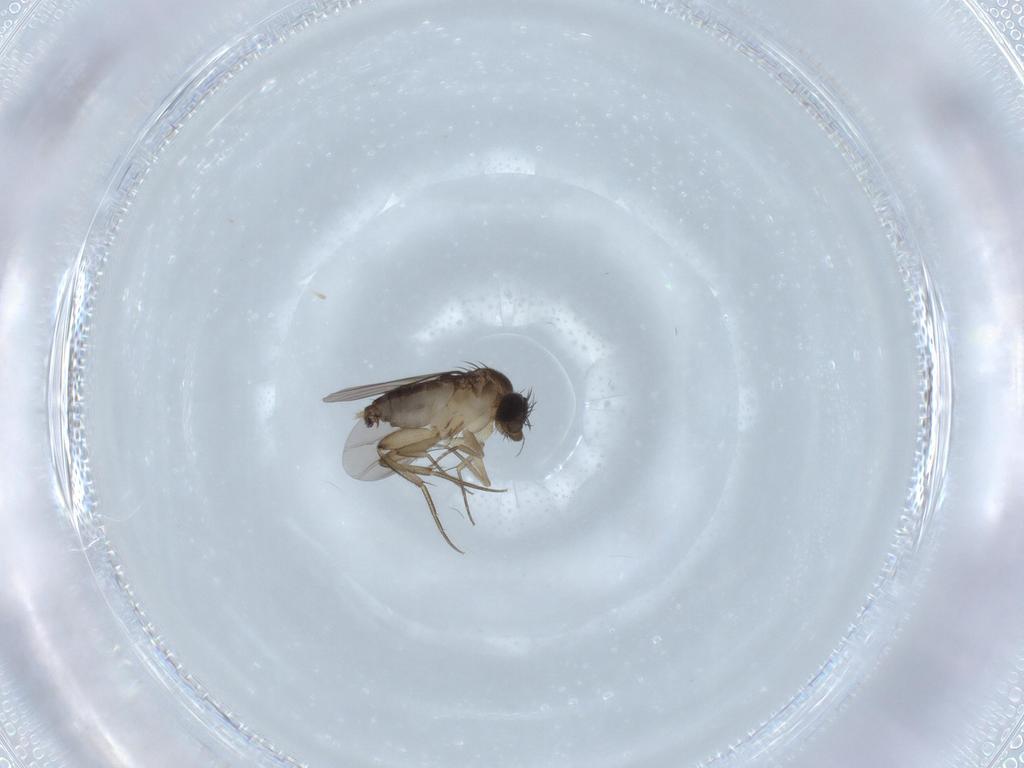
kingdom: Animalia
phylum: Arthropoda
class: Insecta
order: Diptera
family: Phoridae
